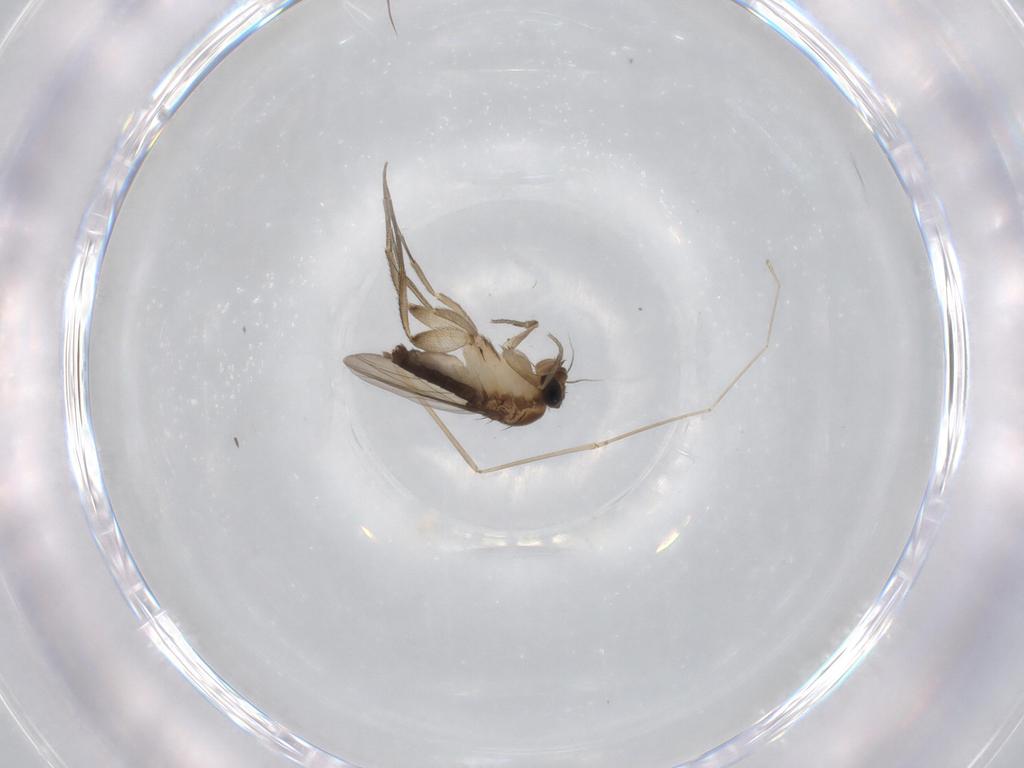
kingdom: Animalia
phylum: Arthropoda
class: Insecta
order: Diptera
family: Phoridae
